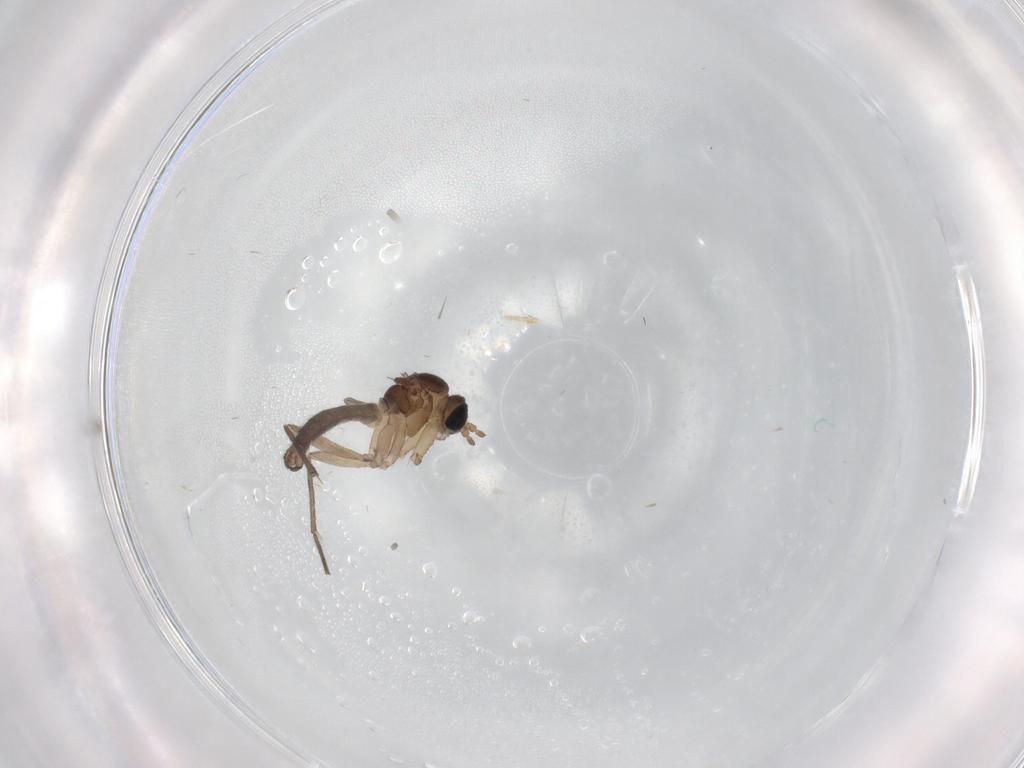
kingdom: Animalia
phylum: Arthropoda
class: Insecta
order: Diptera
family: Cecidomyiidae
